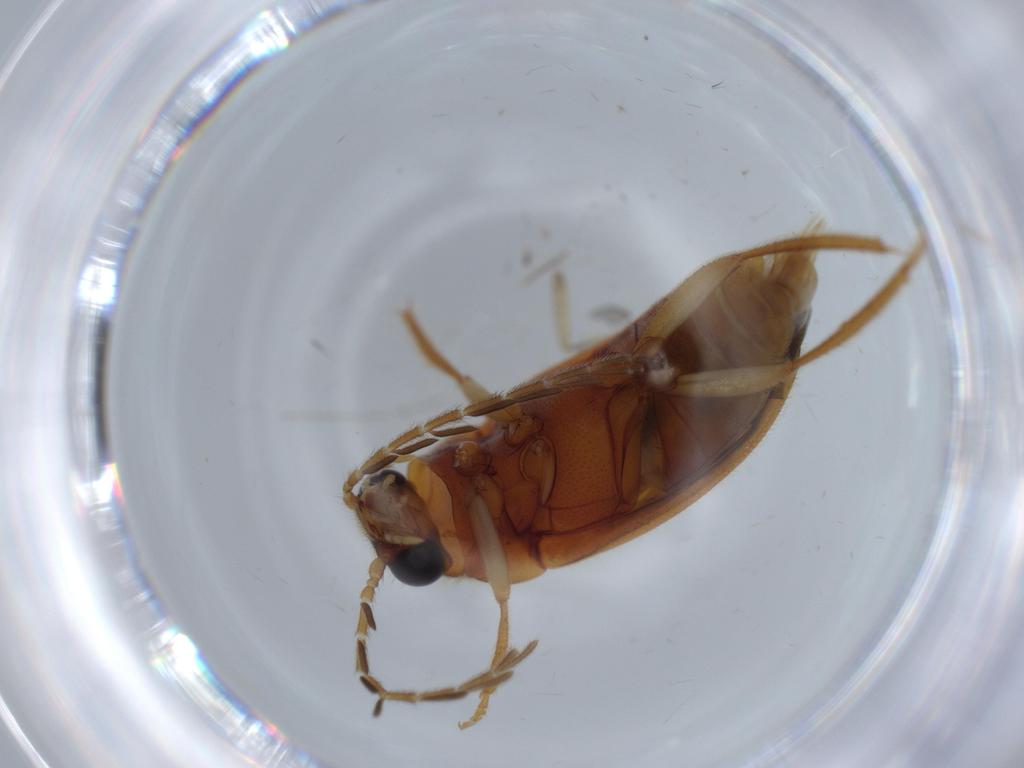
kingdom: Animalia
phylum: Arthropoda
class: Insecta
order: Coleoptera
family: Ptilodactylidae
